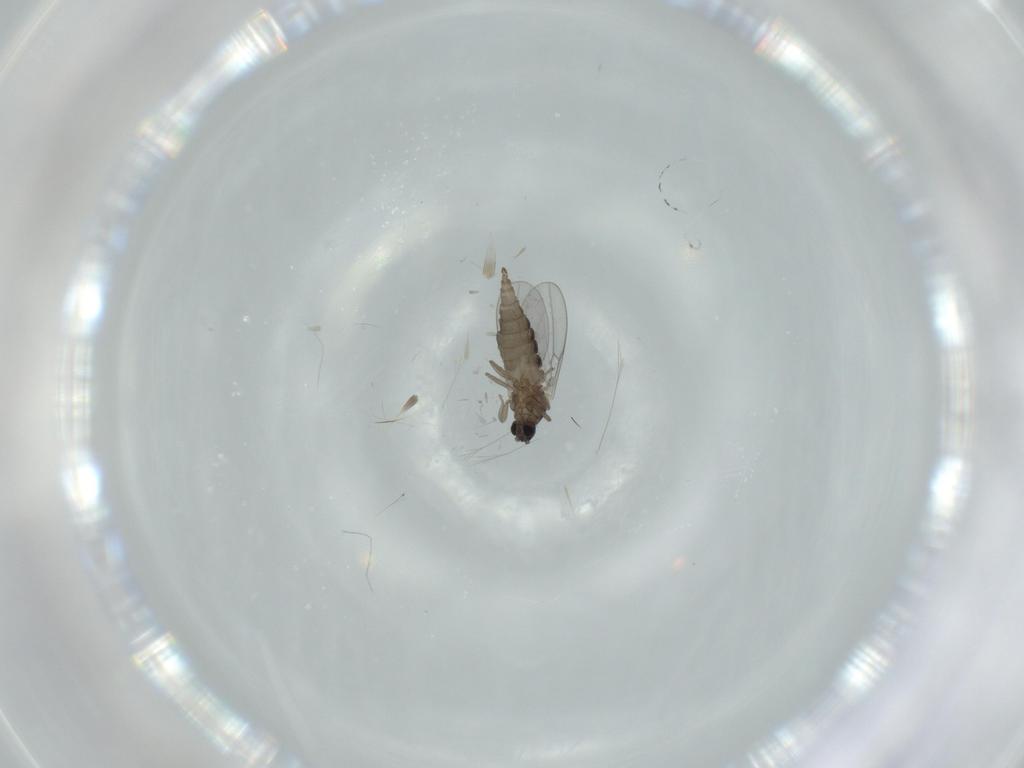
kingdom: Animalia
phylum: Arthropoda
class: Insecta
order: Diptera
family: Cecidomyiidae
